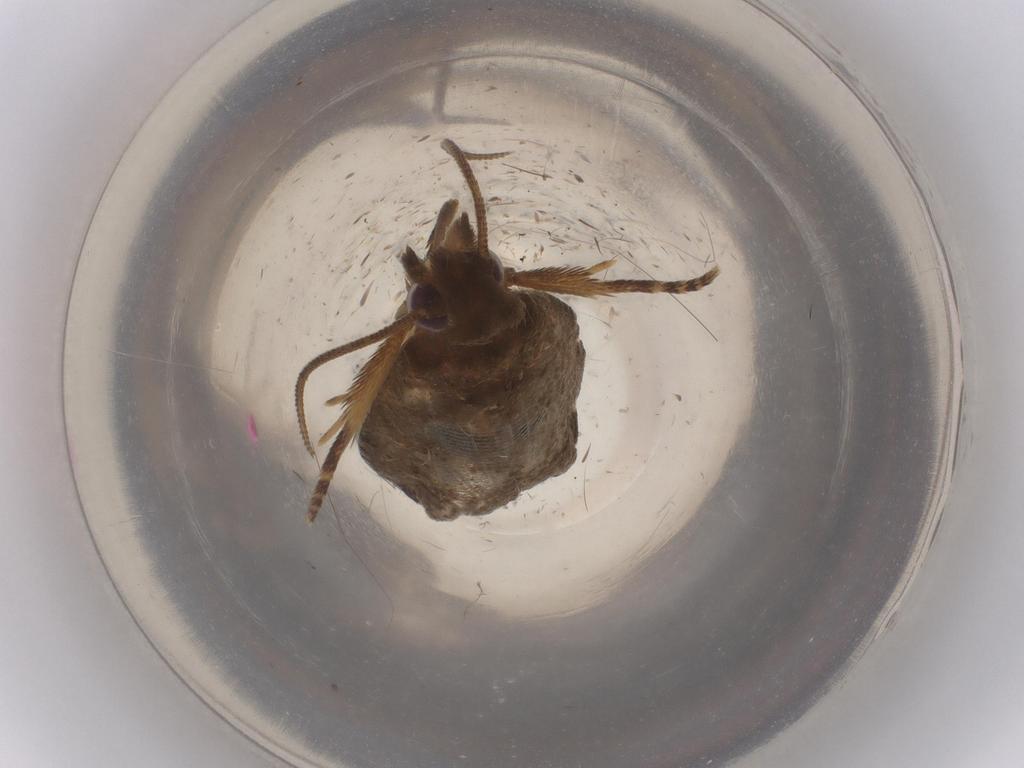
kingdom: Animalia
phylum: Arthropoda
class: Insecta
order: Lepidoptera
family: Tortricidae
